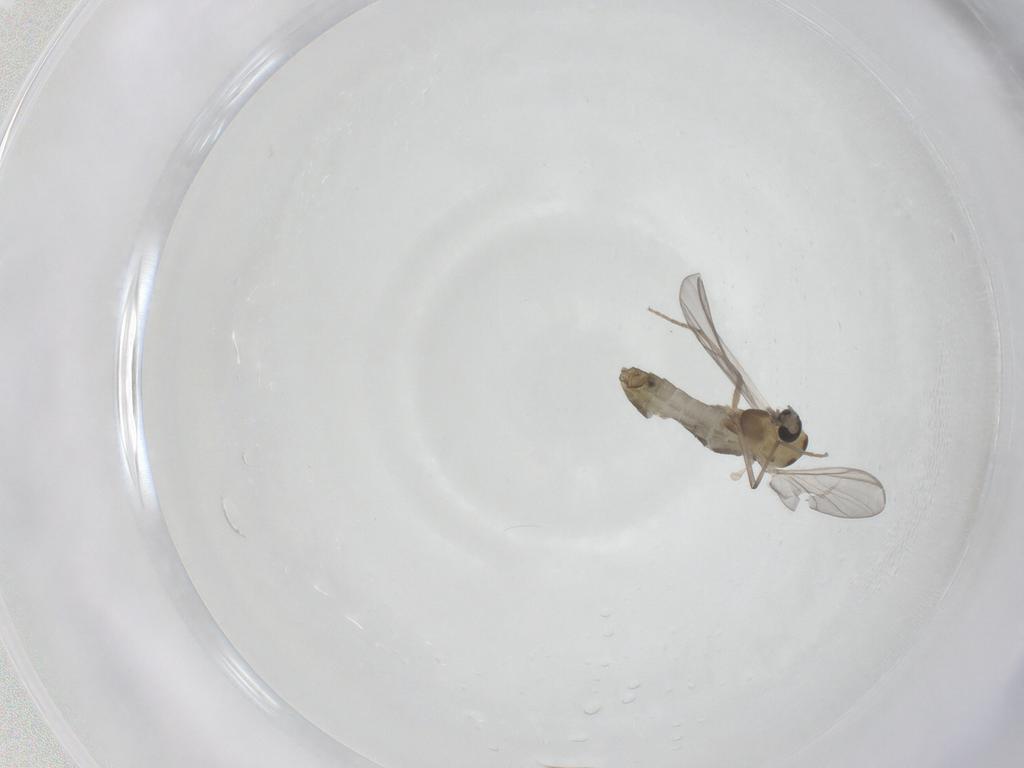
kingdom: Animalia
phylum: Arthropoda
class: Insecta
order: Diptera
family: Chironomidae
